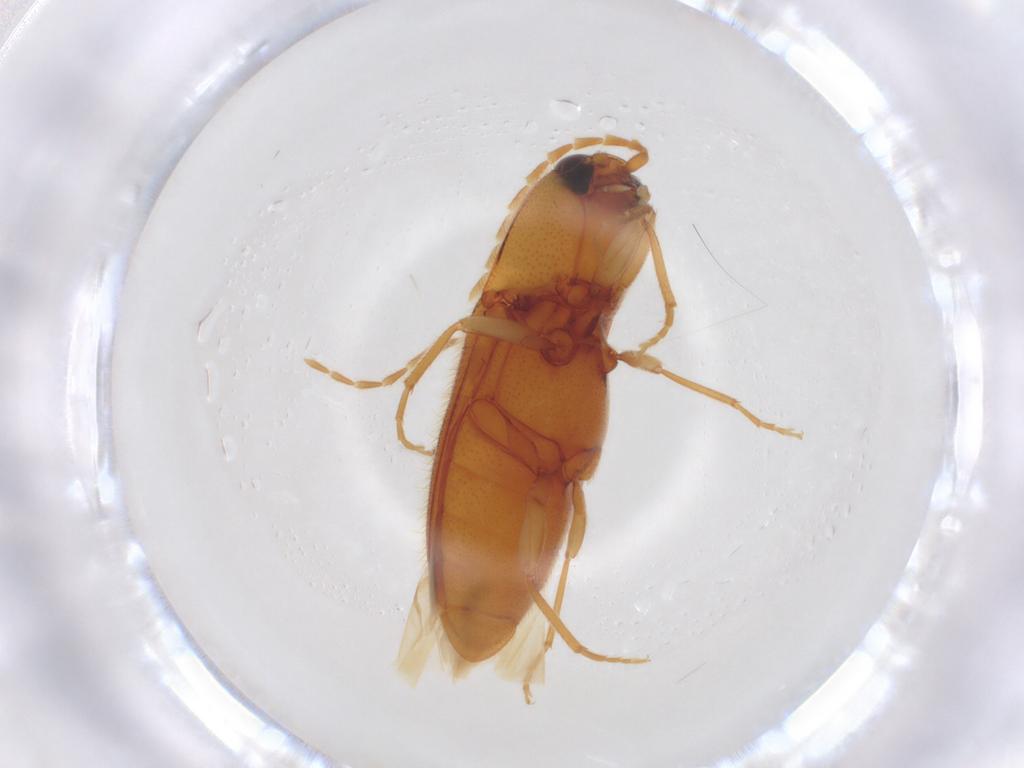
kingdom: Animalia
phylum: Arthropoda
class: Insecta
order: Coleoptera
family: Elateridae
